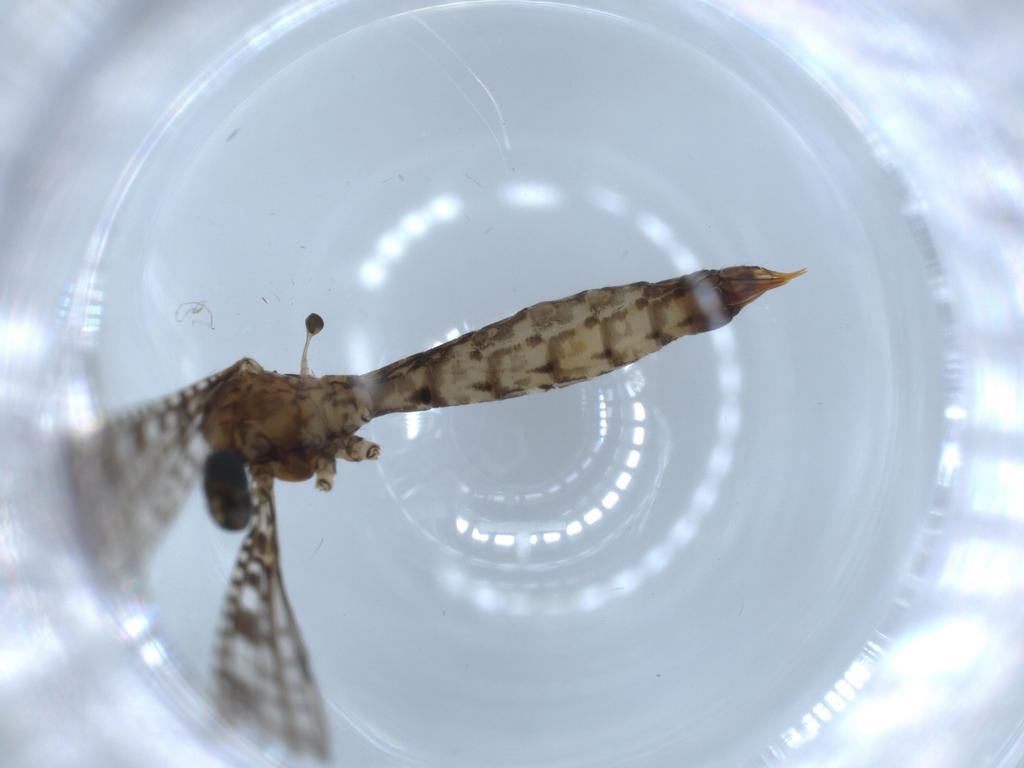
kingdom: Animalia
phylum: Arthropoda
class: Insecta
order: Diptera
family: Limoniidae
